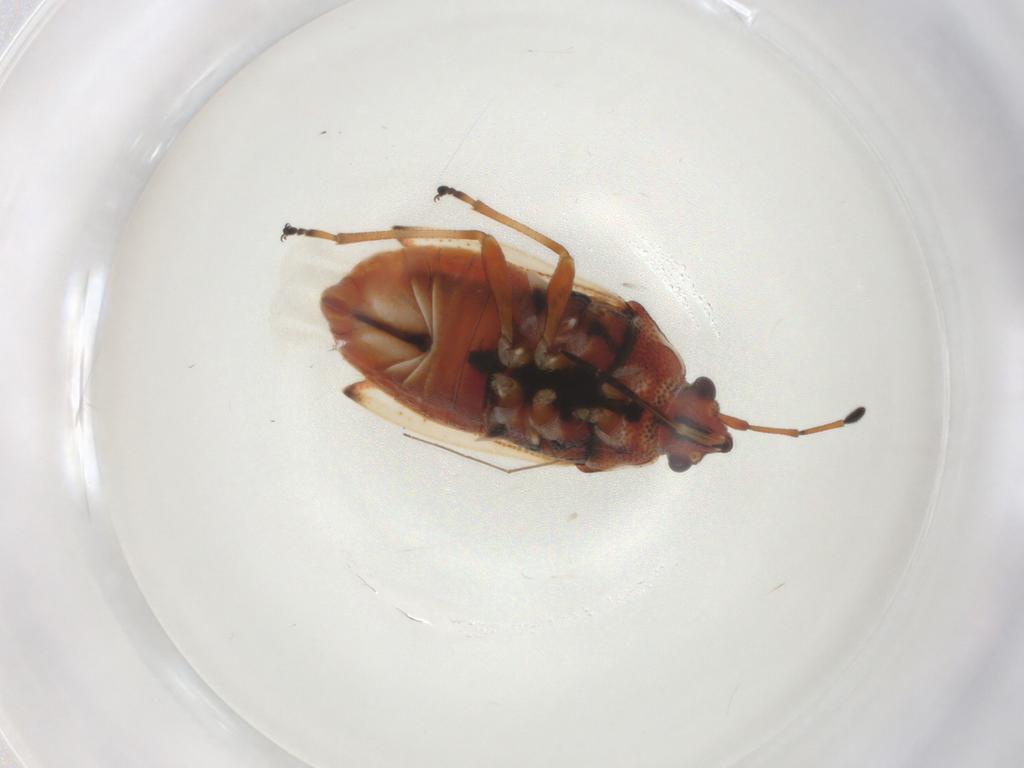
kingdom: Animalia
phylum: Arthropoda
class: Insecta
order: Hemiptera
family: Lygaeidae
